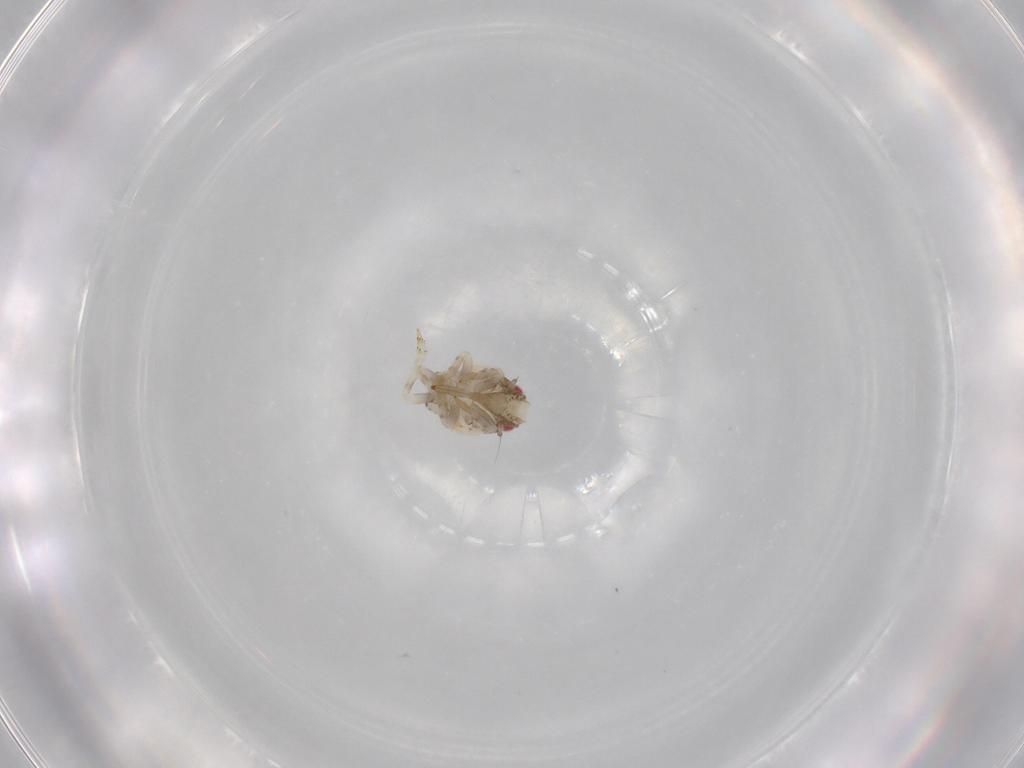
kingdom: Animalia
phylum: Arthropoda
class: Insecta
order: Hemiptera
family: Acanaloniidae
